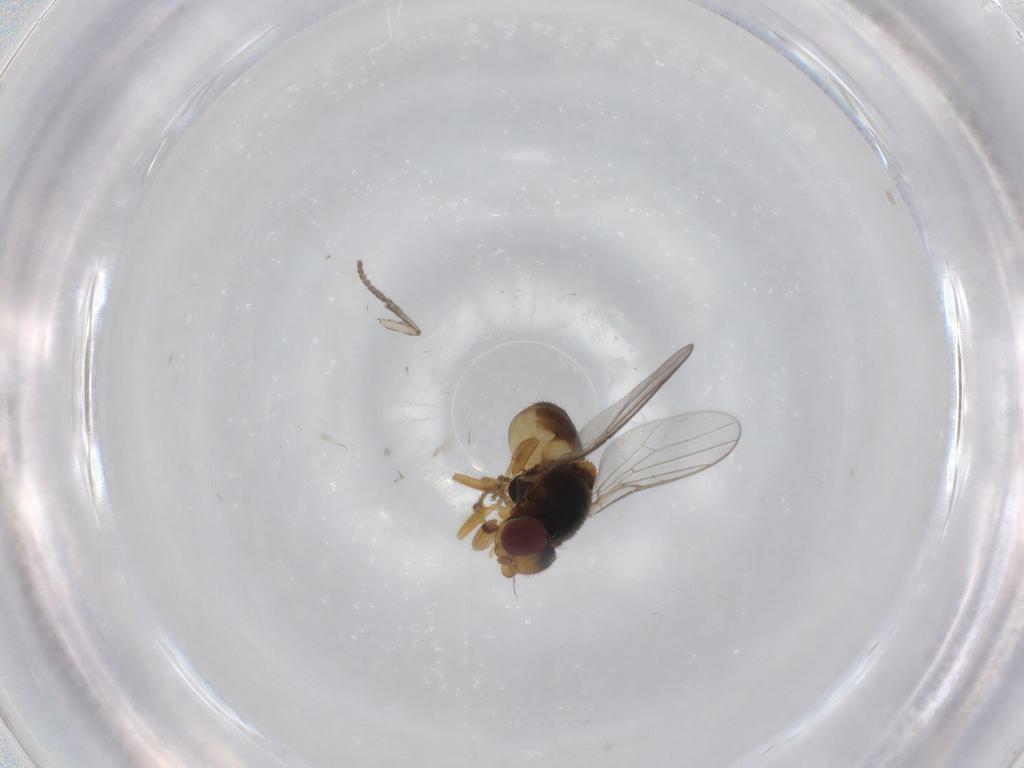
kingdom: Animalia
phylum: Arthropoda
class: Insecta
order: Diptera
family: Chloropidae
